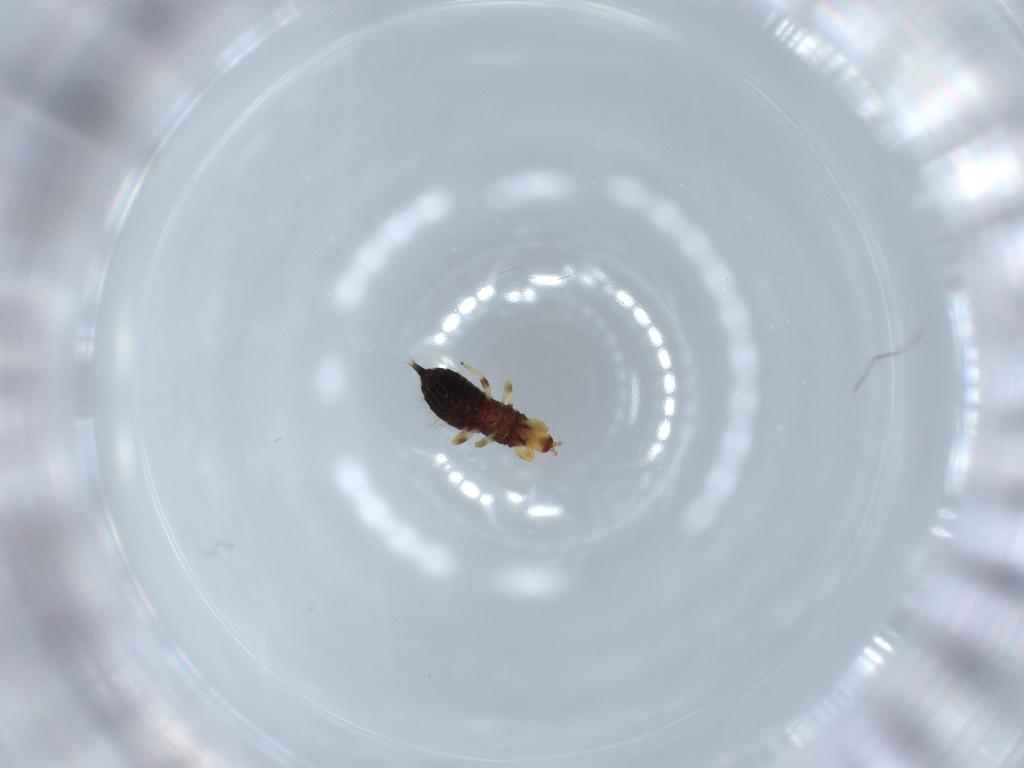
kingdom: Animalia
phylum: Arthropoda
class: Insecta
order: Thysanoptera
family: Phlaeothripidae
